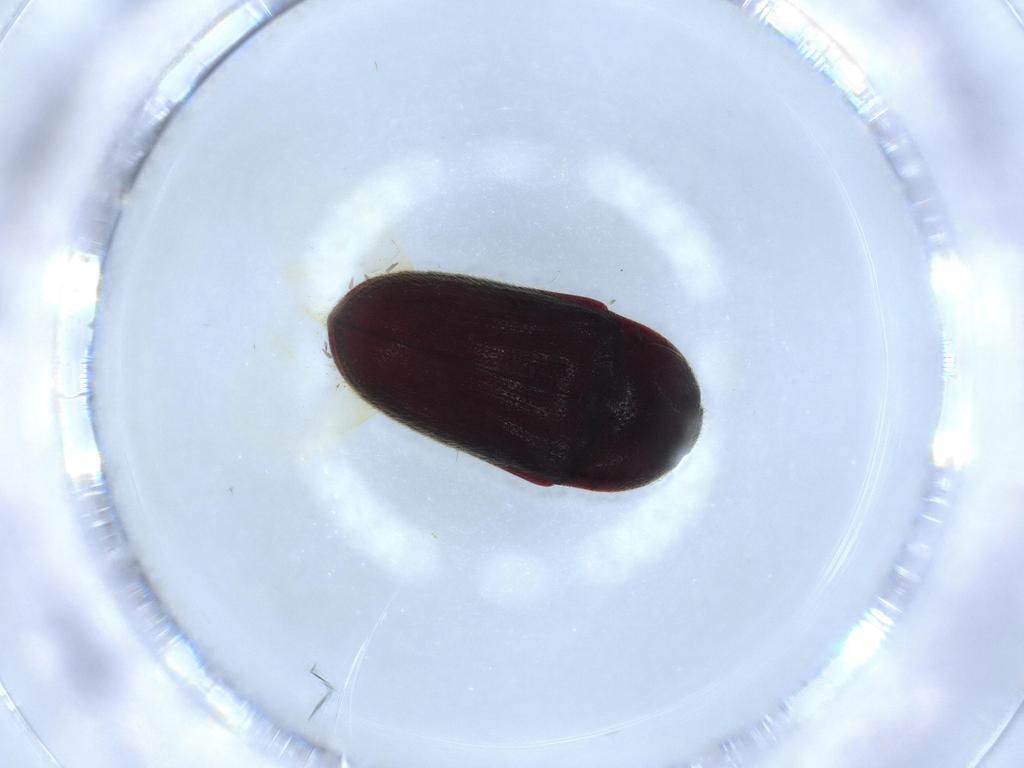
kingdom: Animalia
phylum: Arthropoda
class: Insecta
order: Coleoptera
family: Throscidae
